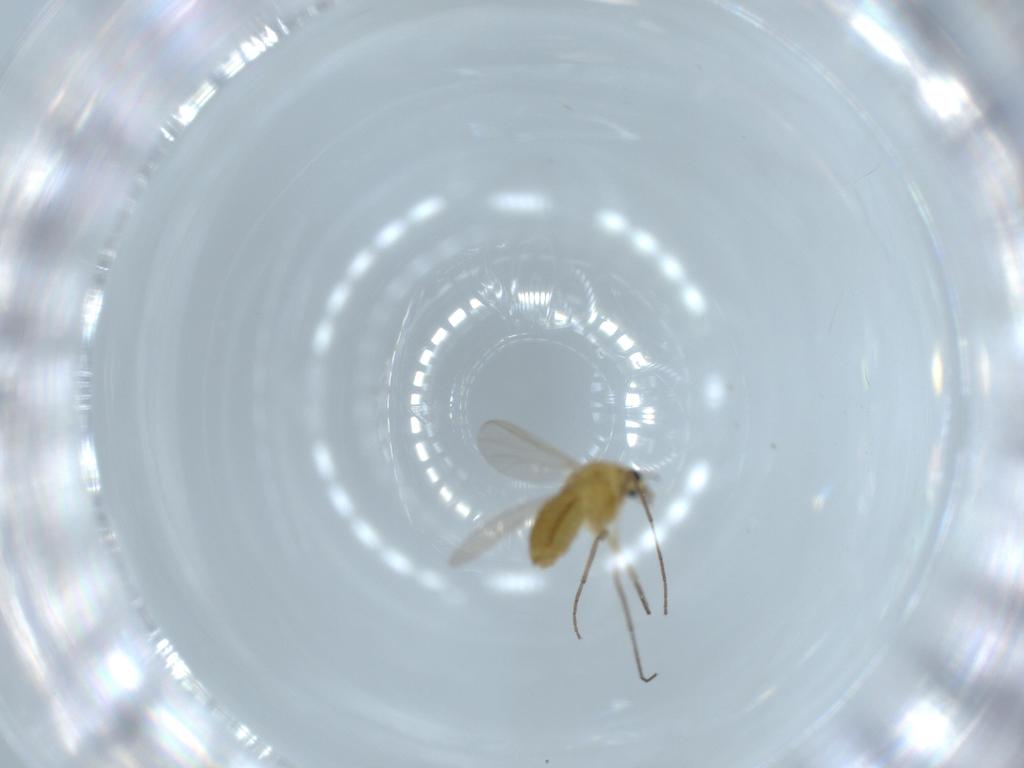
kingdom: Animalia
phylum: Arthropoda
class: Insecta
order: Diptera
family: Chironomidae
